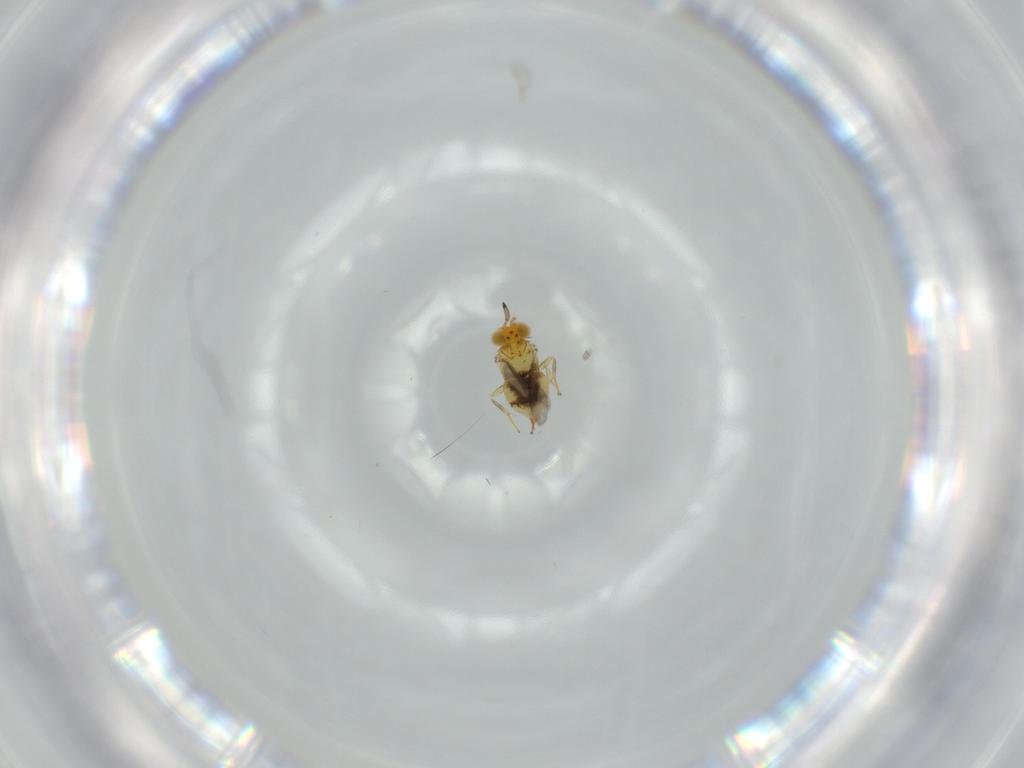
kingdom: Animalia
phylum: Arthropoda
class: Insecta
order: Hymenoptera
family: Aphelinidae
